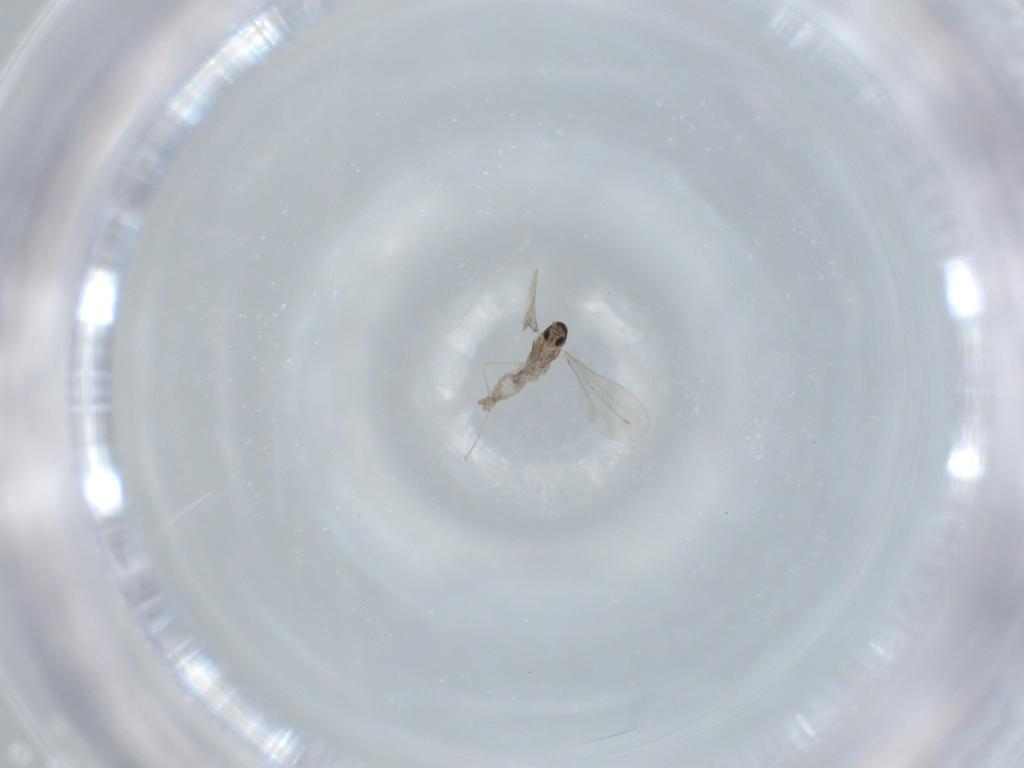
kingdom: Animalia
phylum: Arthropoda
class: Insecta
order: Diptera
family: Cecidomyiidae
